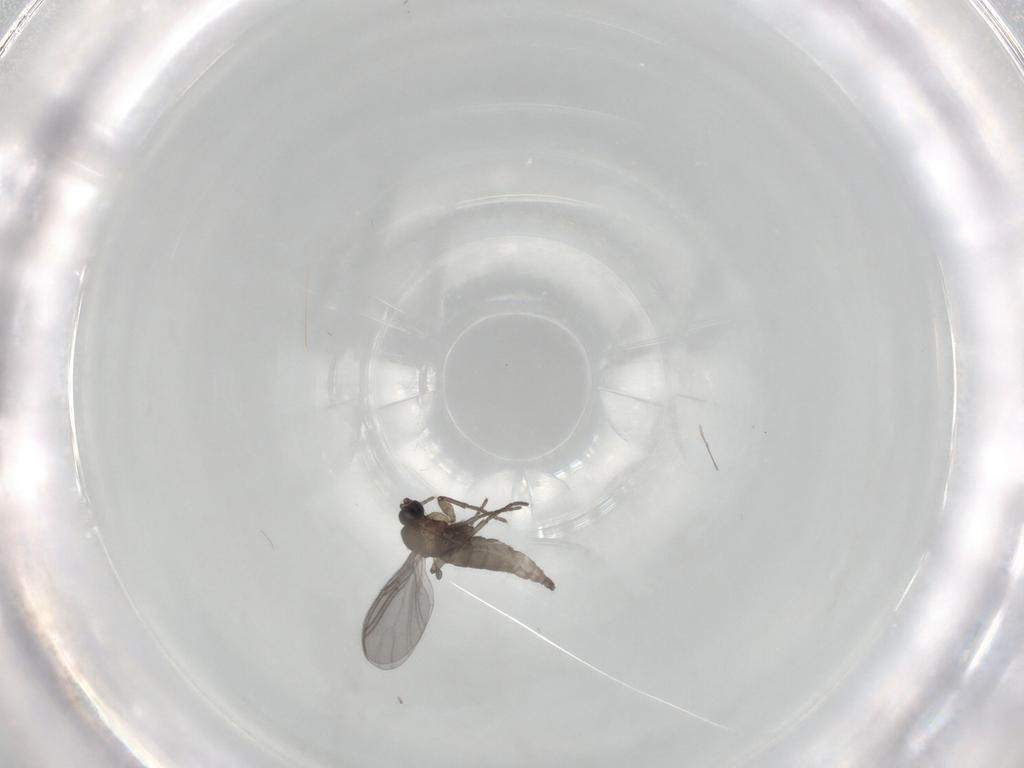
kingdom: Animalia
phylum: Arthropoda
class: Insecta
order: Diptera
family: Sciaridae
